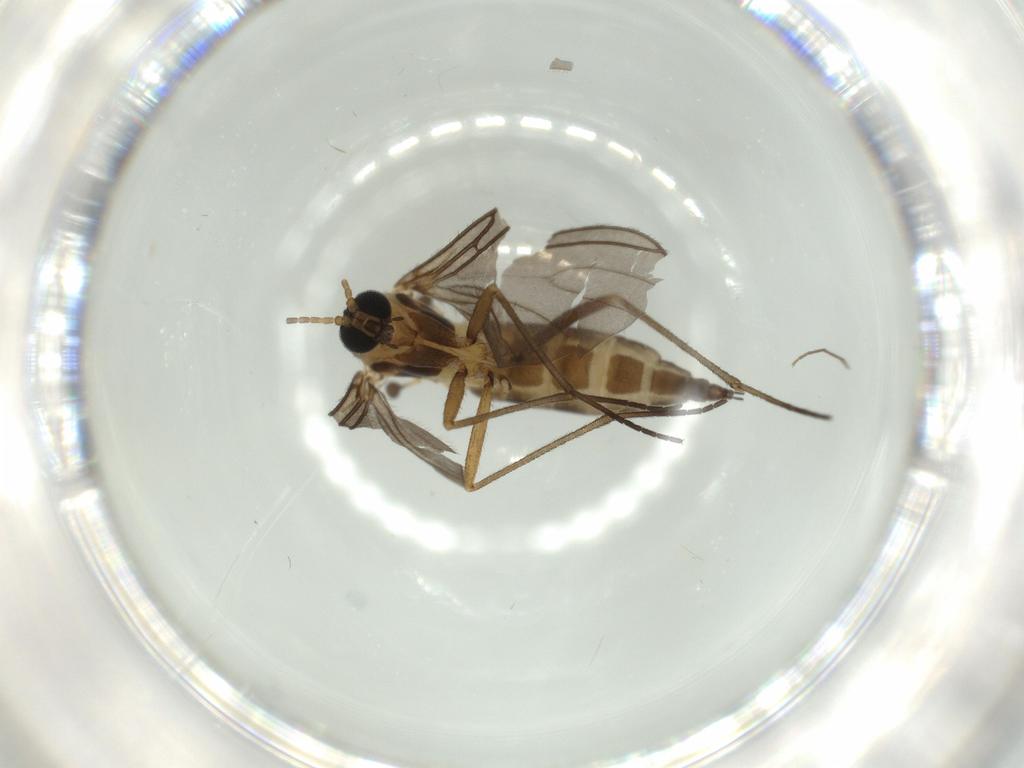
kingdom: Animalia
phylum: Arthropoda
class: Insecta
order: Diptera
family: Sciaridae
